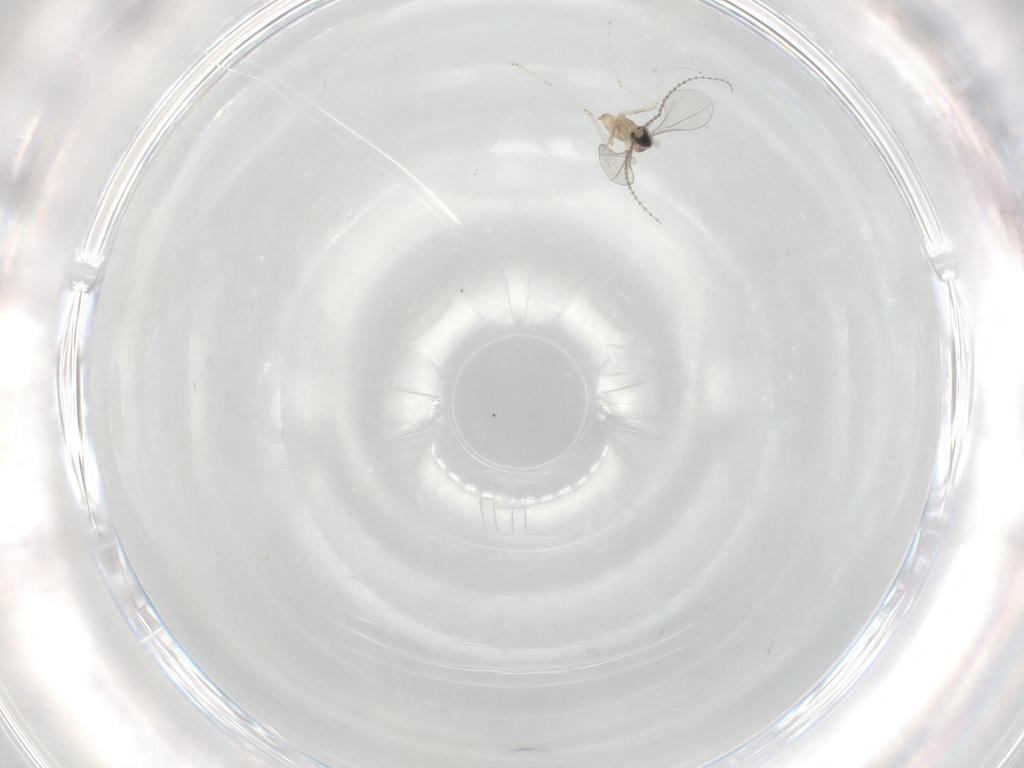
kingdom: Animalia
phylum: Arthropoda
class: Insecta
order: Diptera
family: Cecidomyiidae
